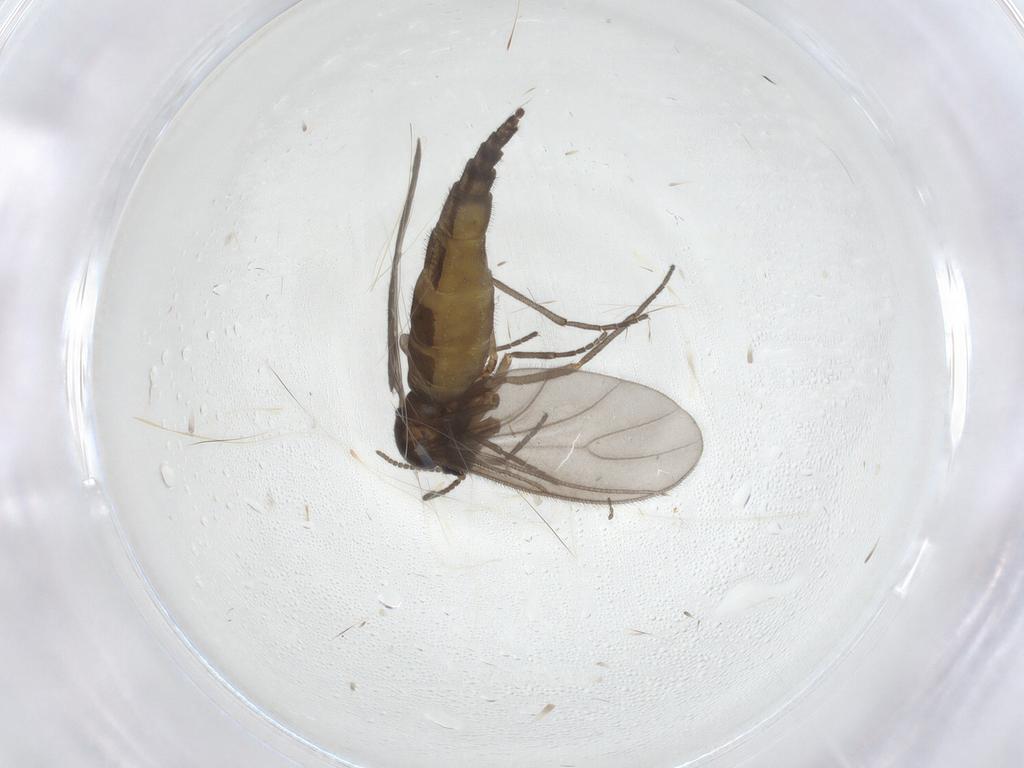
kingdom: Animalia
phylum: Arthropoda
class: Insecta
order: Diptera
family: Sciaridae
